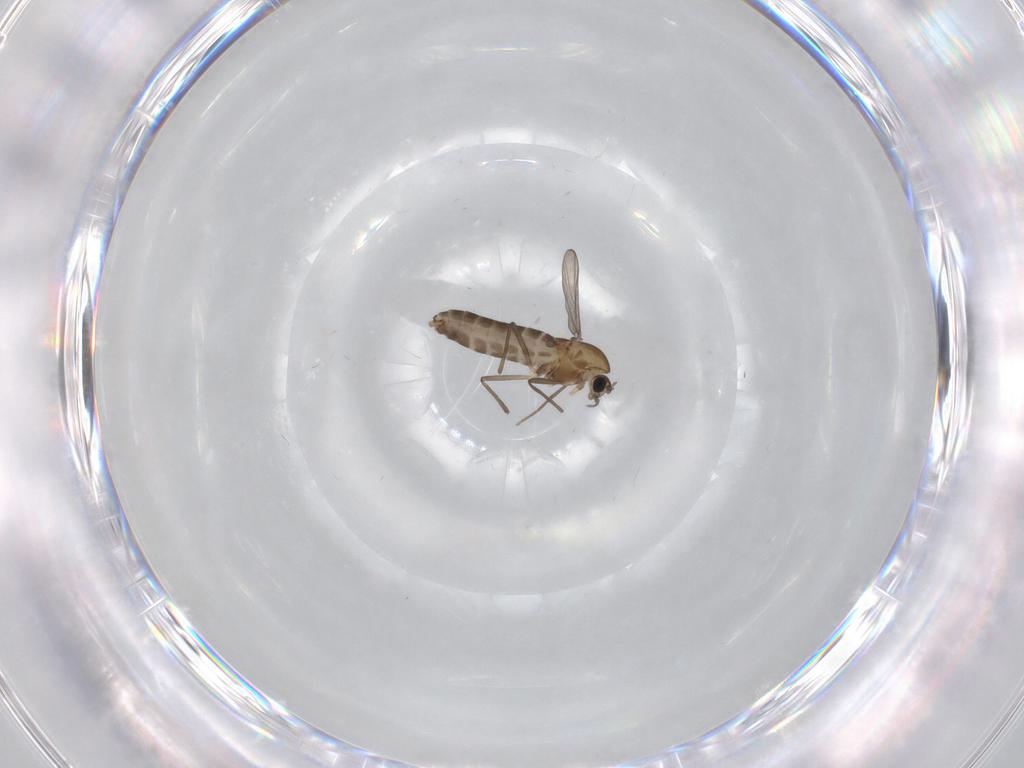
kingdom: Animalia
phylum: Arthropoda
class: Insecta
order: Diptera
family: Chironomidae
